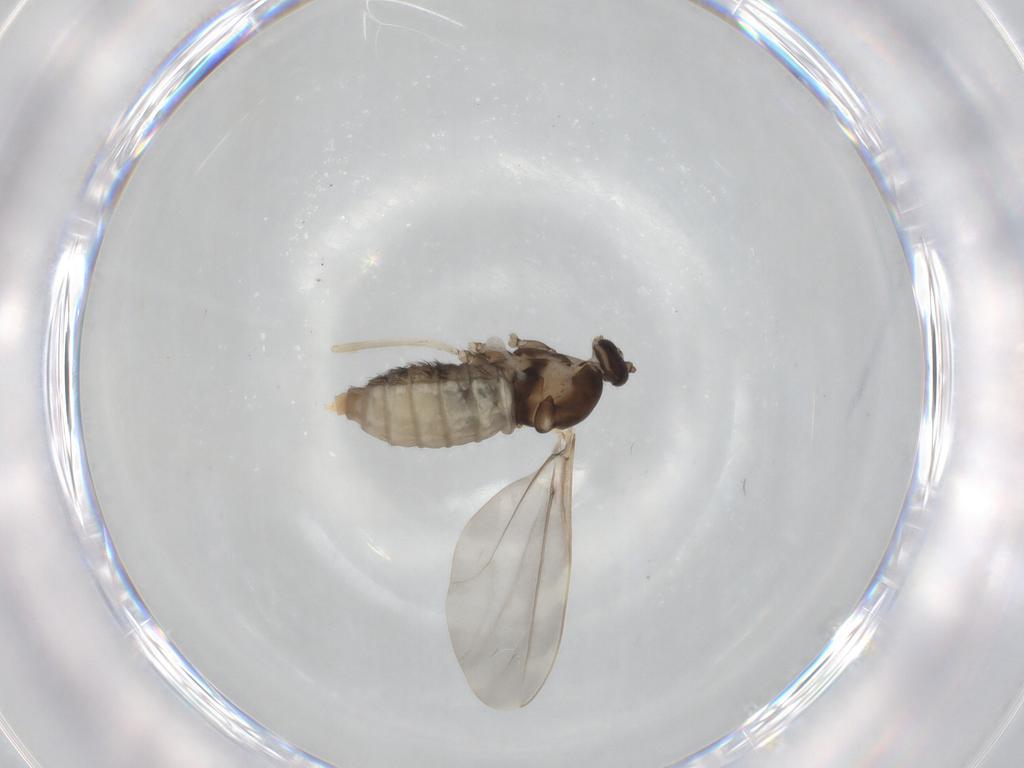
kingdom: Animalia
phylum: Arthropoda
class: Insecta
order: Diptera
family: Cecidomyiidae
